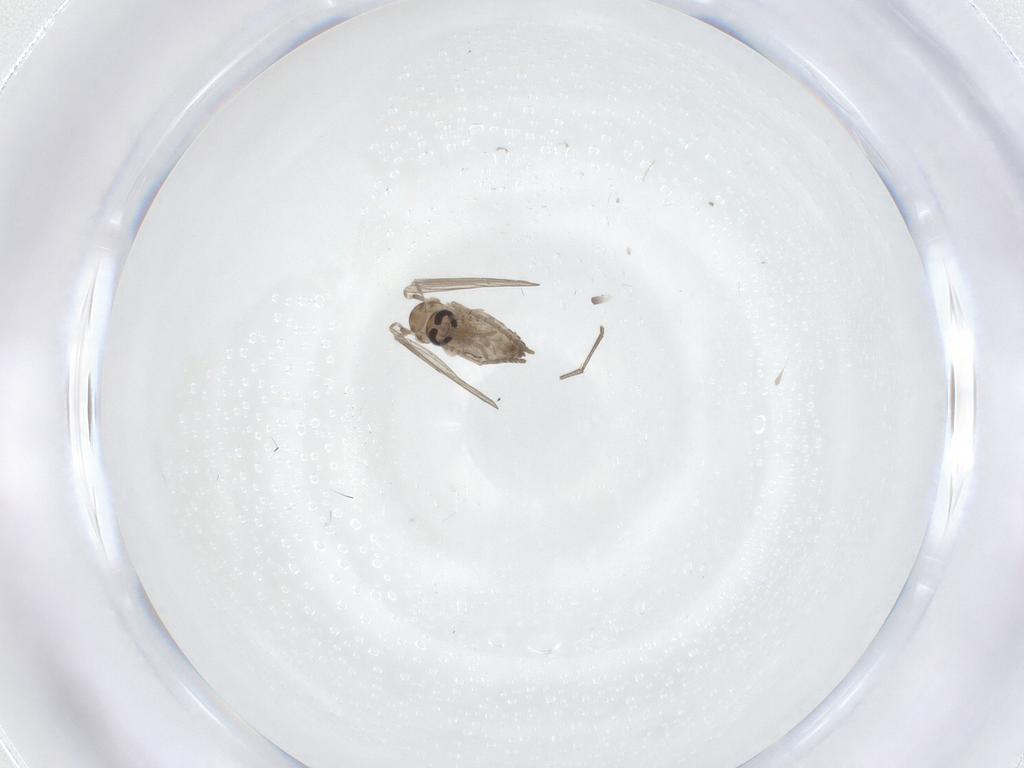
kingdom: Animalia
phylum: Arthropoda
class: Insecta
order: Diptera
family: Psychodidae
